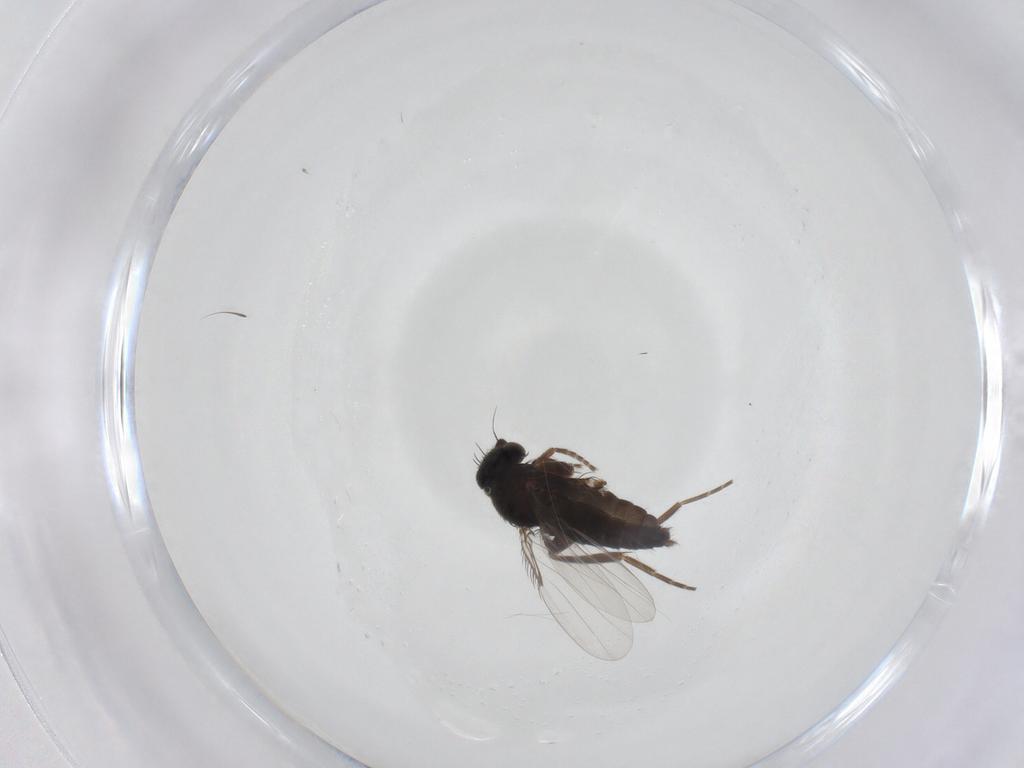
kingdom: Animalia
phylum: Arthropoda
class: Insecta
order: Diptera
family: Sciaridae
